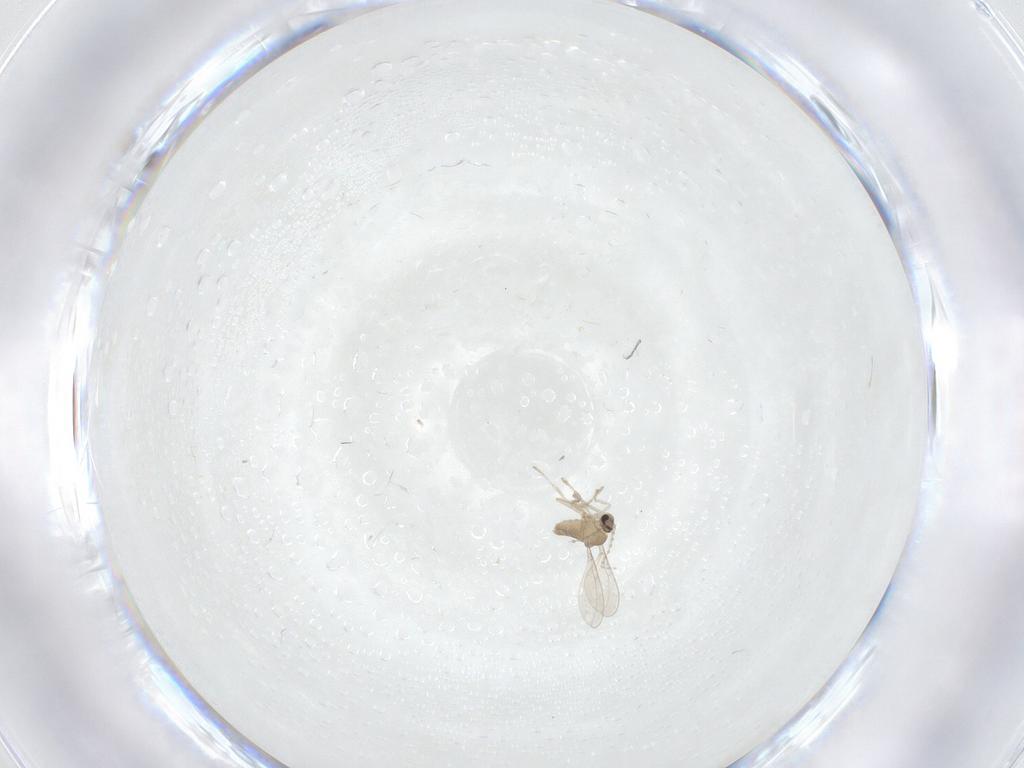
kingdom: Animalia
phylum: Arthropoda
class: Insecta
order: Diptera
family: Cecidomyiidae
